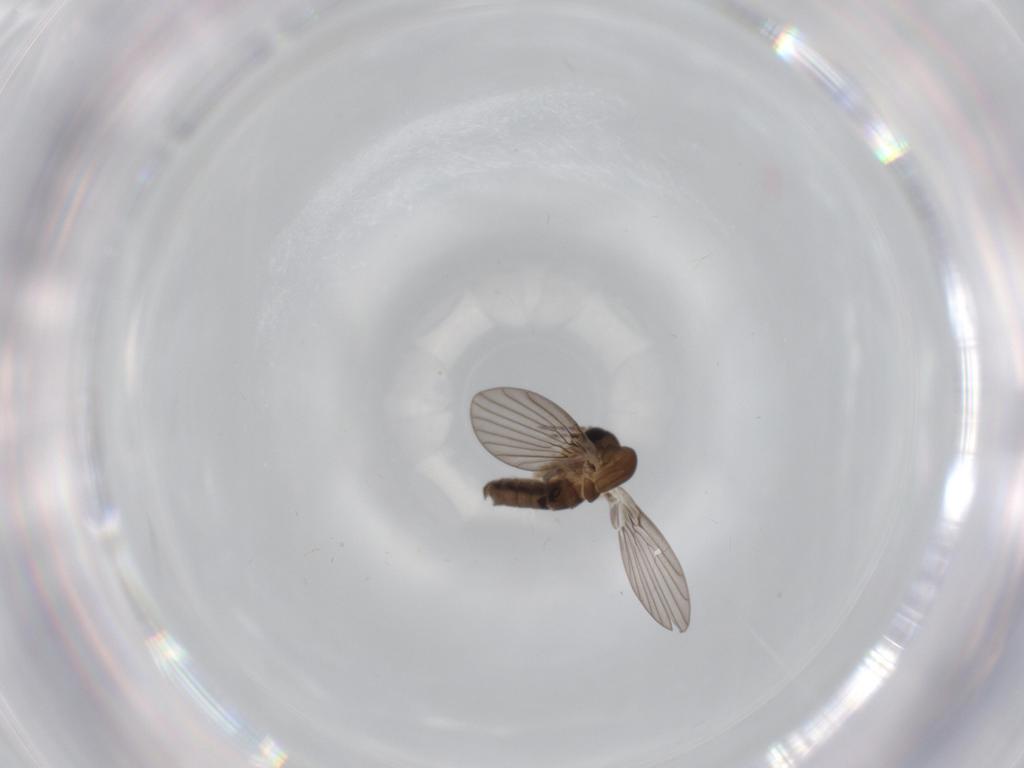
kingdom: Animalia
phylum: Arthropoda
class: Insecta
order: Diptera
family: Psychodidae
